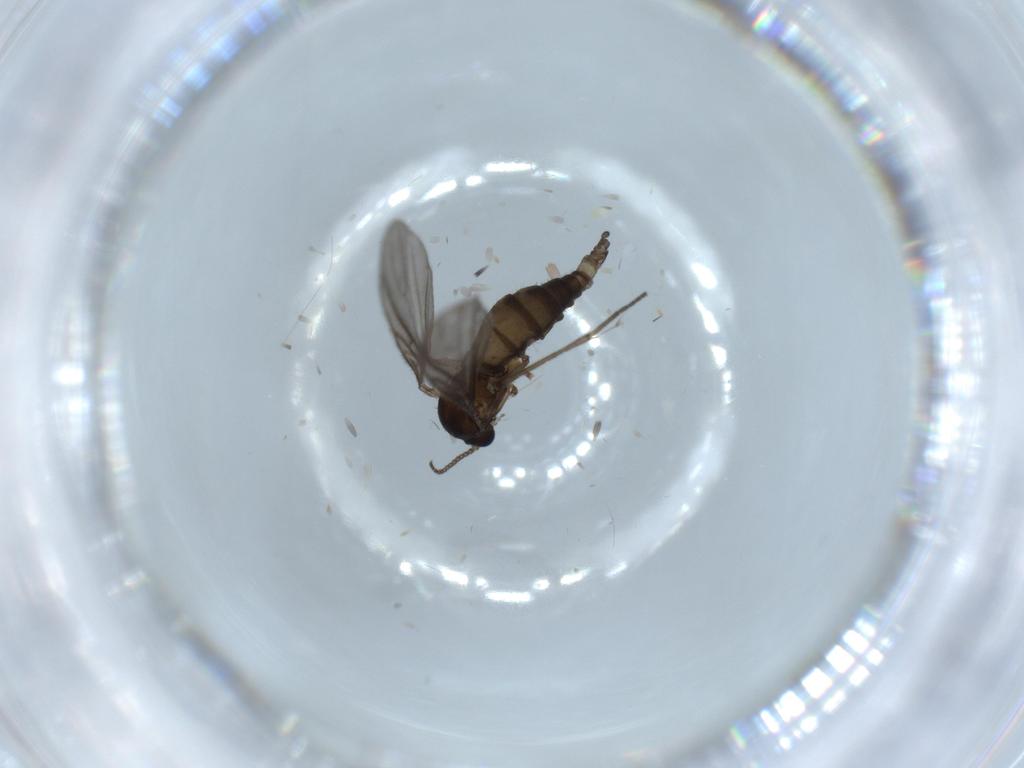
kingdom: Animalia
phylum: Arthropoda
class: Insecta
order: Diptera
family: Sciaridae
